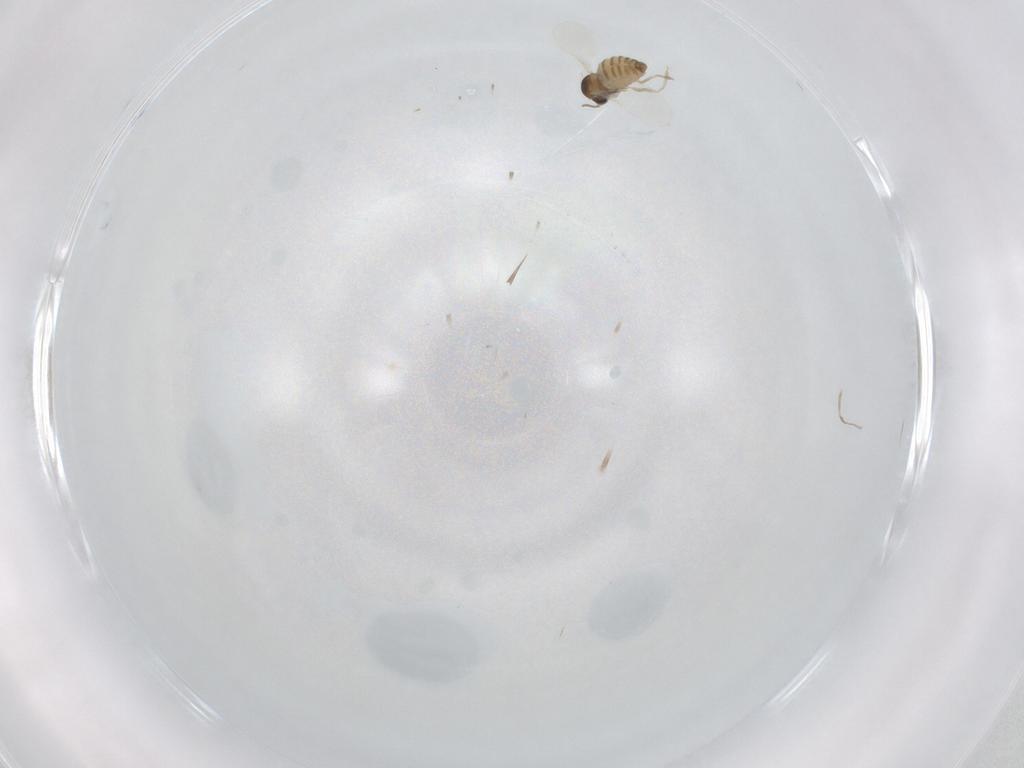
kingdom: Animalia
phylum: Arthropoda
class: Insecta
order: Diptera
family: Cecidomyiidae
